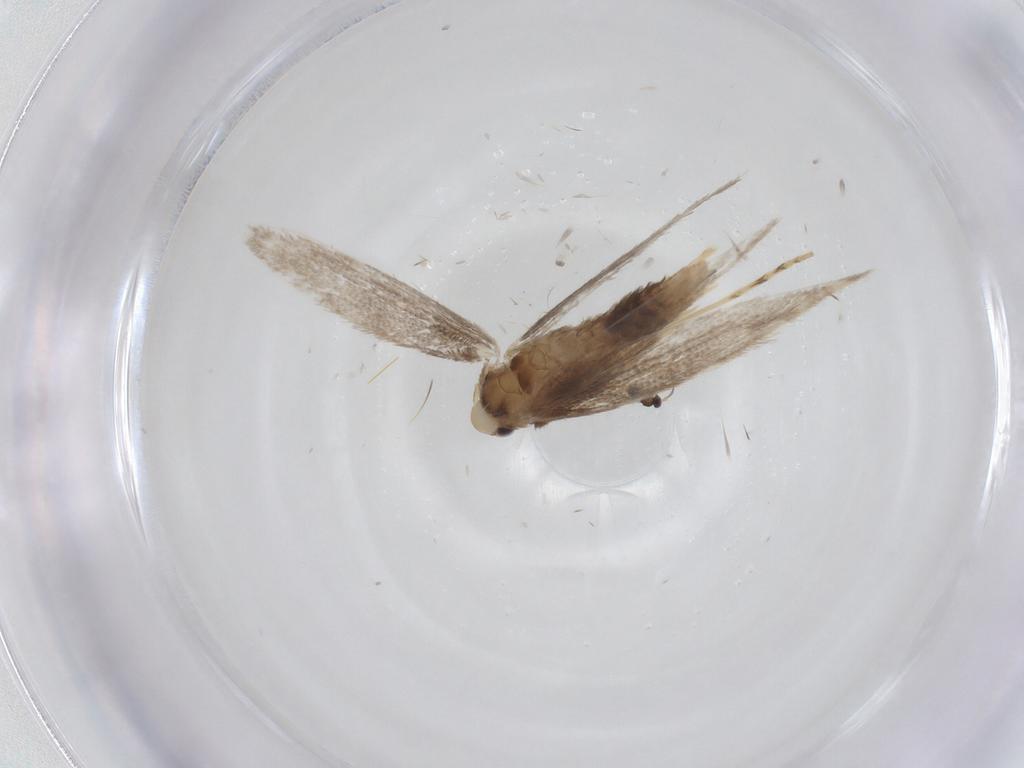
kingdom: Animalia
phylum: Arthropoda
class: Insecta
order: Lepidoptera
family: Gracillariidae
